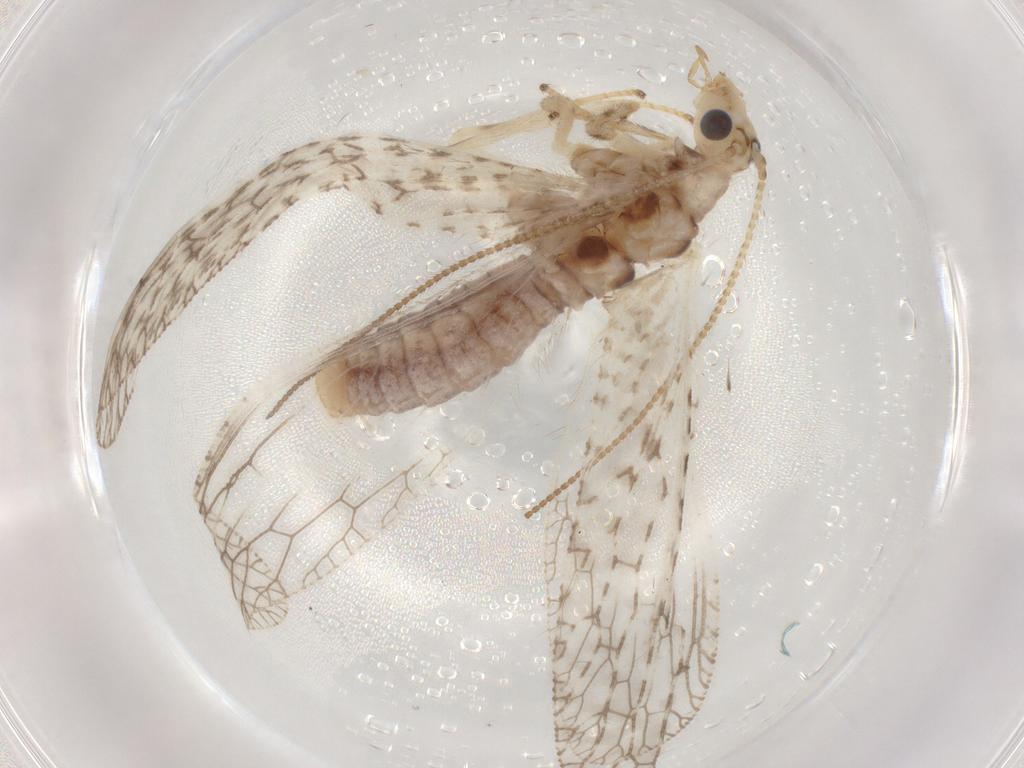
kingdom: Animalia
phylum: Arthropoda
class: Insecta
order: Neuroptera
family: Hemerobiidae
